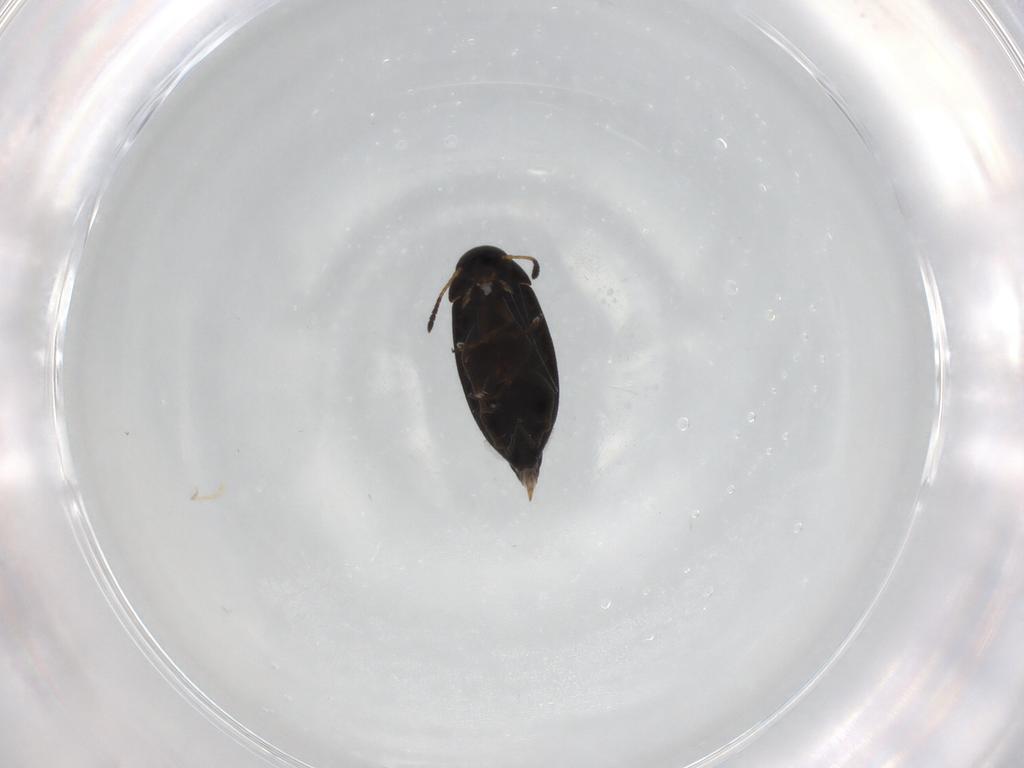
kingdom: Animalia
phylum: Arthropoda
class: Insecta
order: Coleoptera
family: Scraptiidae
